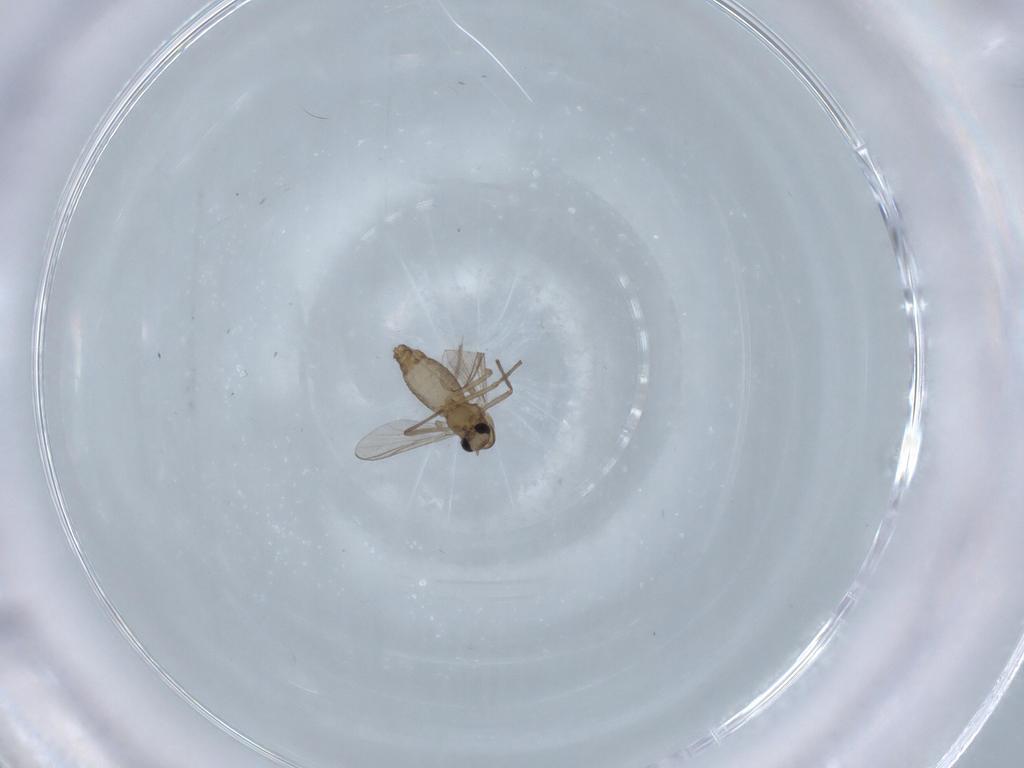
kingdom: Animalia
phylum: Arthropoda
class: Insecta
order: Diptera
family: Chironomidae
